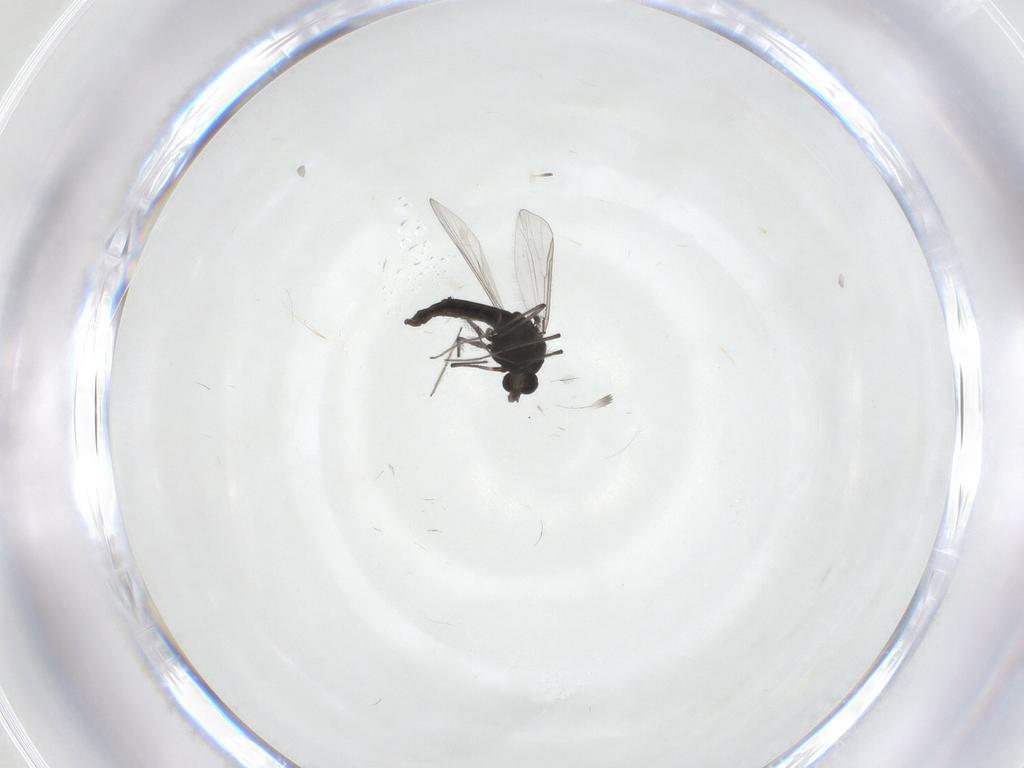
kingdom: Animalia
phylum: Arthropoda
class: Insecta
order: Diptera
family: Chironomidae
